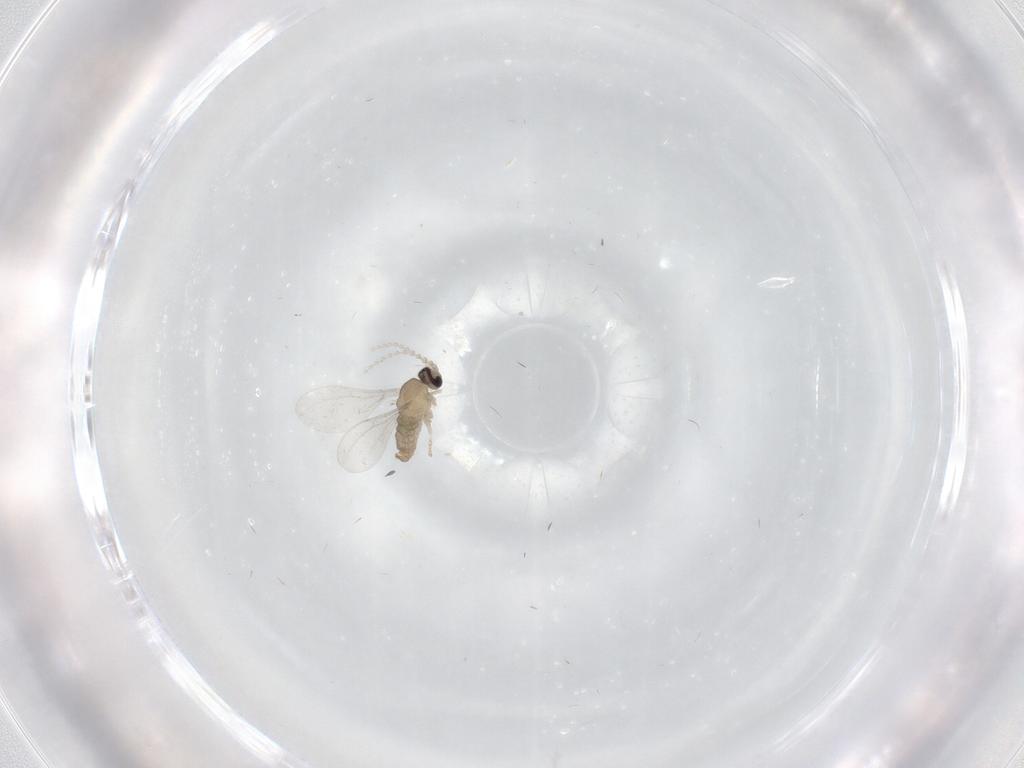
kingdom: Animalia
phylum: Arthropoda
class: Insecta
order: Diptera
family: Cecidomyiidae
